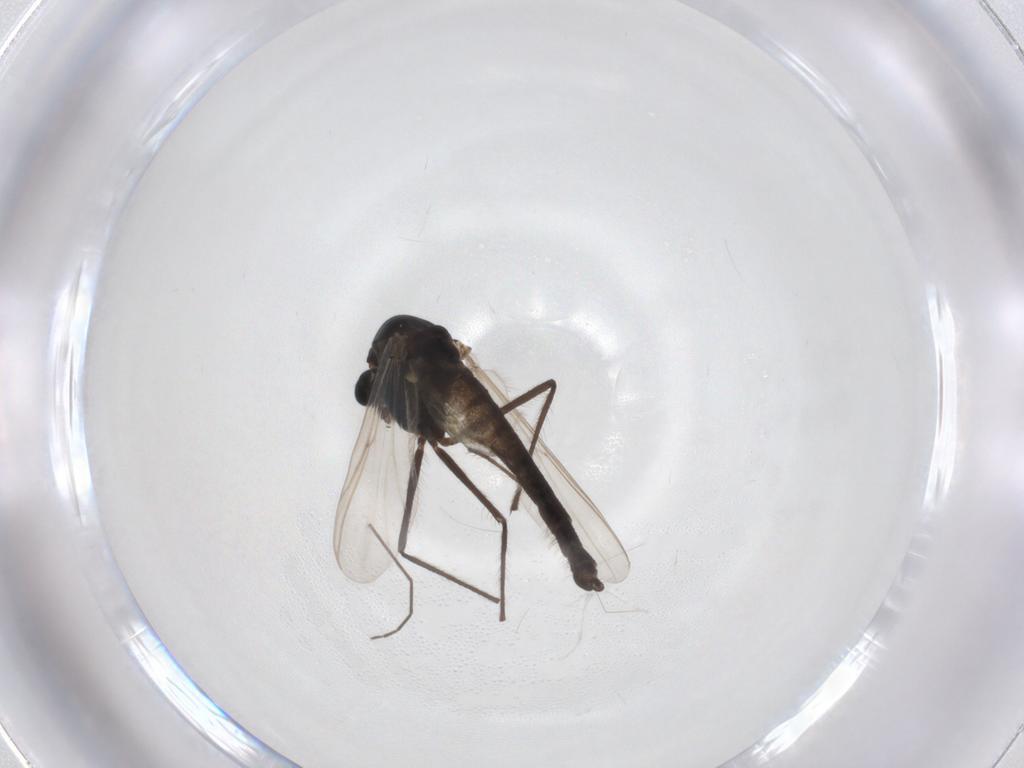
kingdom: Animalia
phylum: Arthropoda
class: Insecta
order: Diptera
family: Chironomidae
